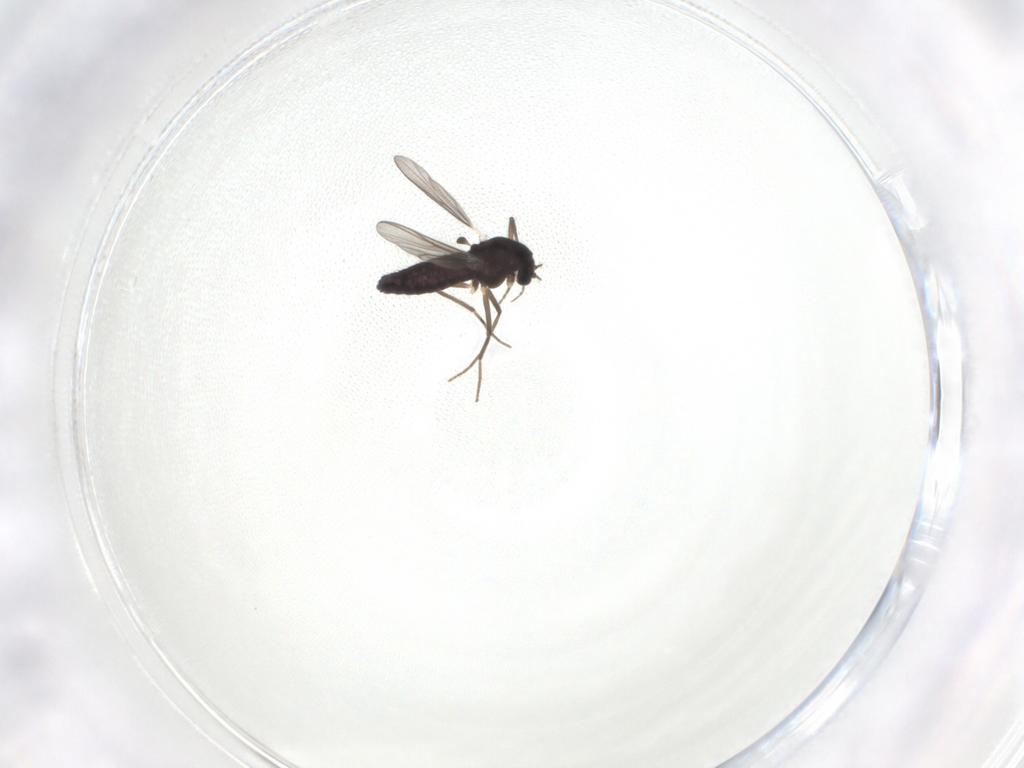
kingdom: Animalia
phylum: Arthropoda
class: Insecta
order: Diptera
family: Chironomidae
